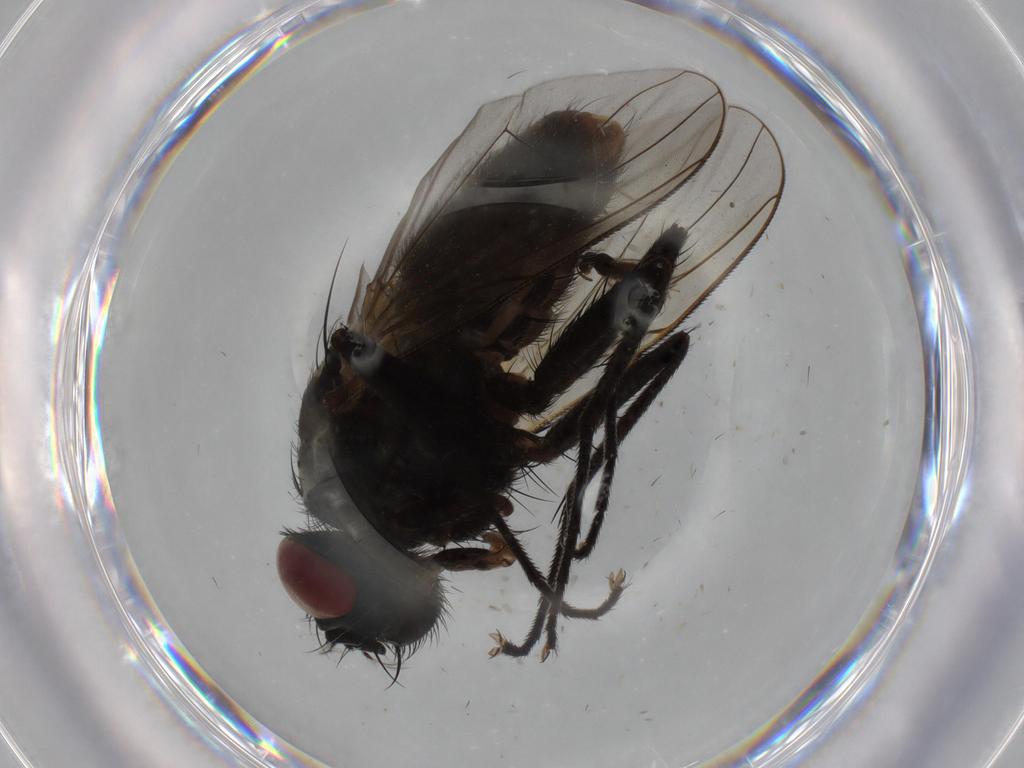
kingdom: Animalia
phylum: Arthropoda
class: Insecta
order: Diptera
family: Muscidae
